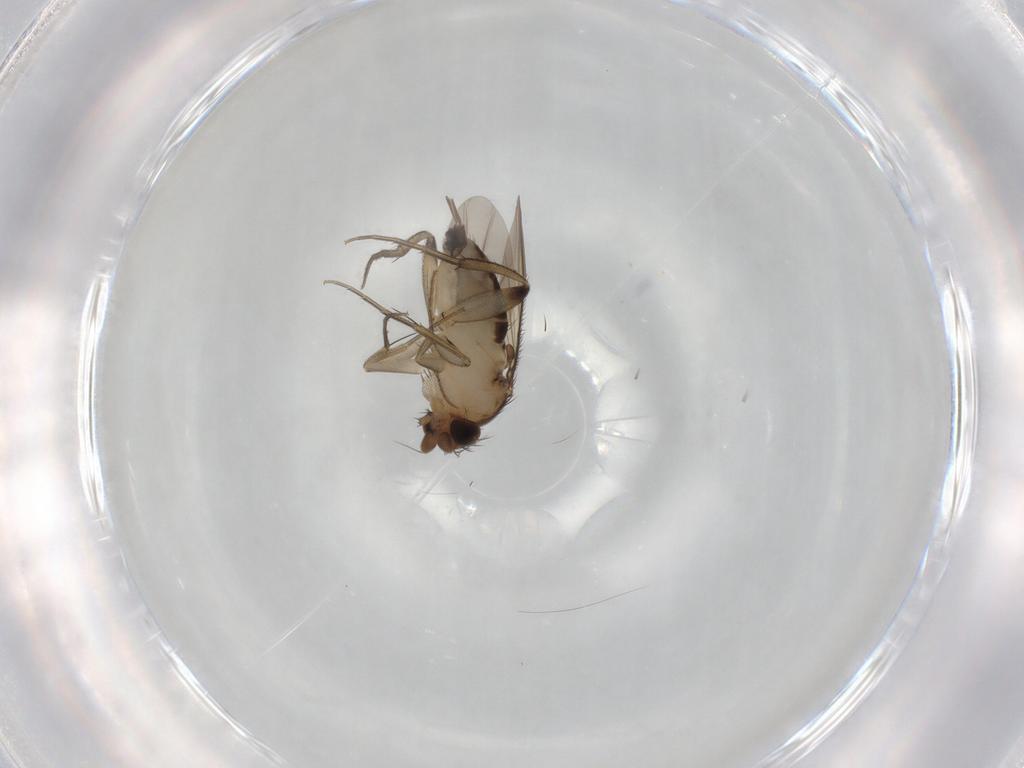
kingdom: Animalia
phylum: Arthropoda
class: Insecta
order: Diptera
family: Phoridae
